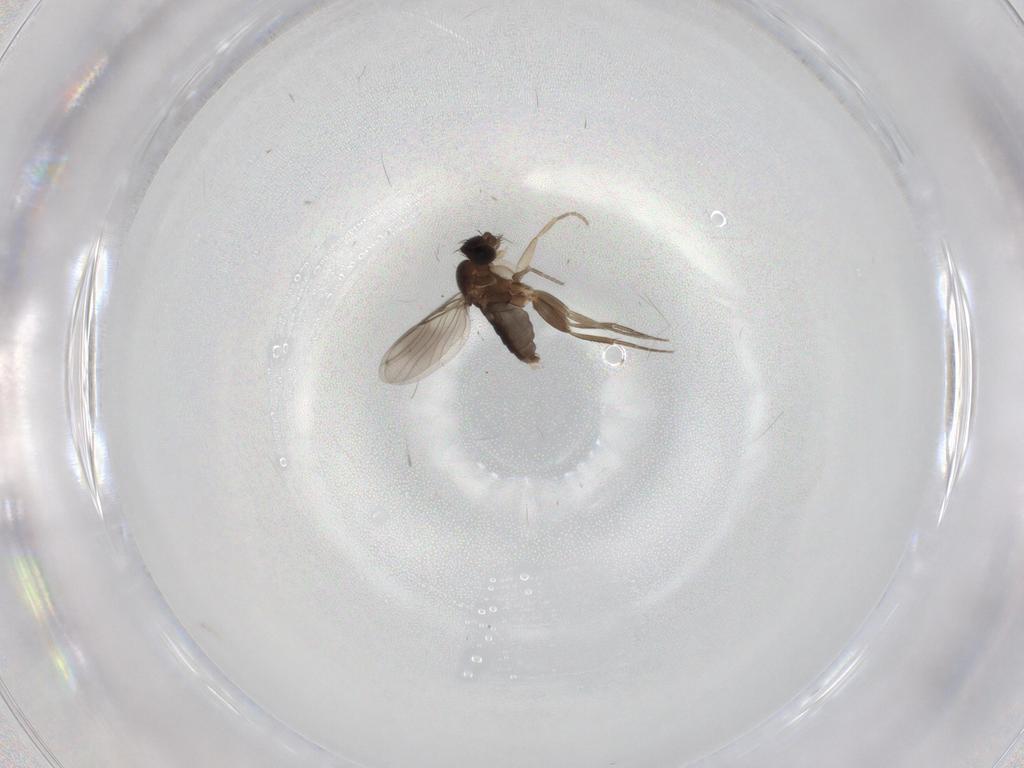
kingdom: Animalia
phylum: Arthropoda
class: Insecta
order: Diptera
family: Phoridae
